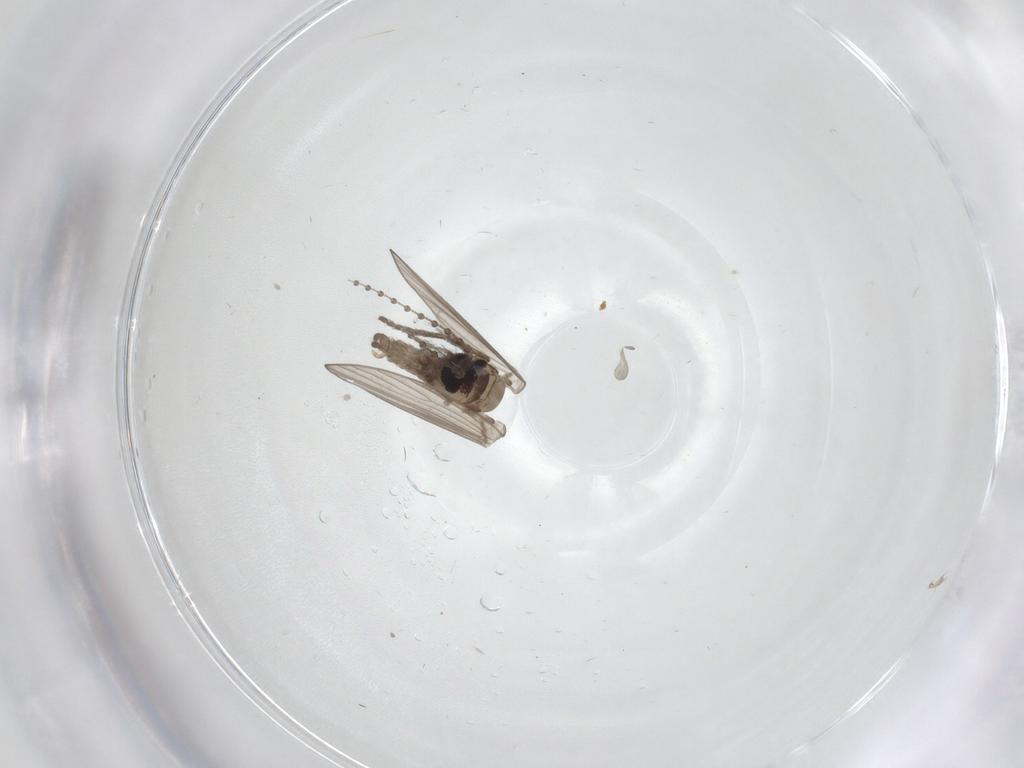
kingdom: Animalia
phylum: Arthropoda
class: Insecta
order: Diptera
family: Psychodidae
